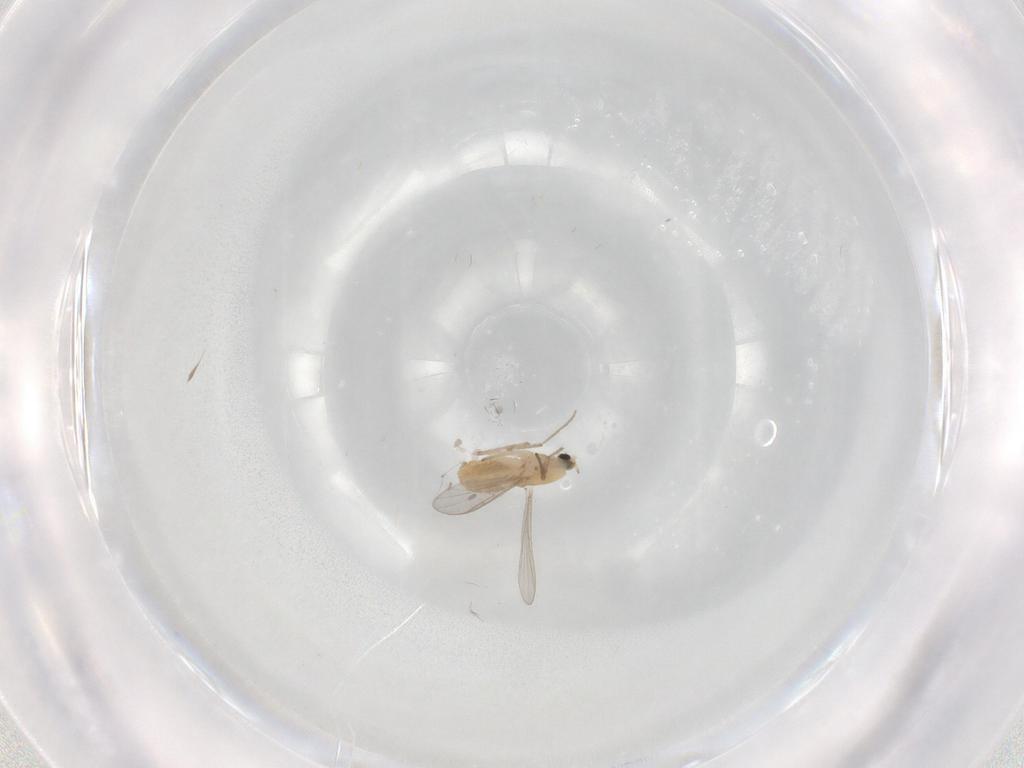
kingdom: Animalia
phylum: Arthropoda
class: Insecta
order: Diptera
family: Chironomidae
